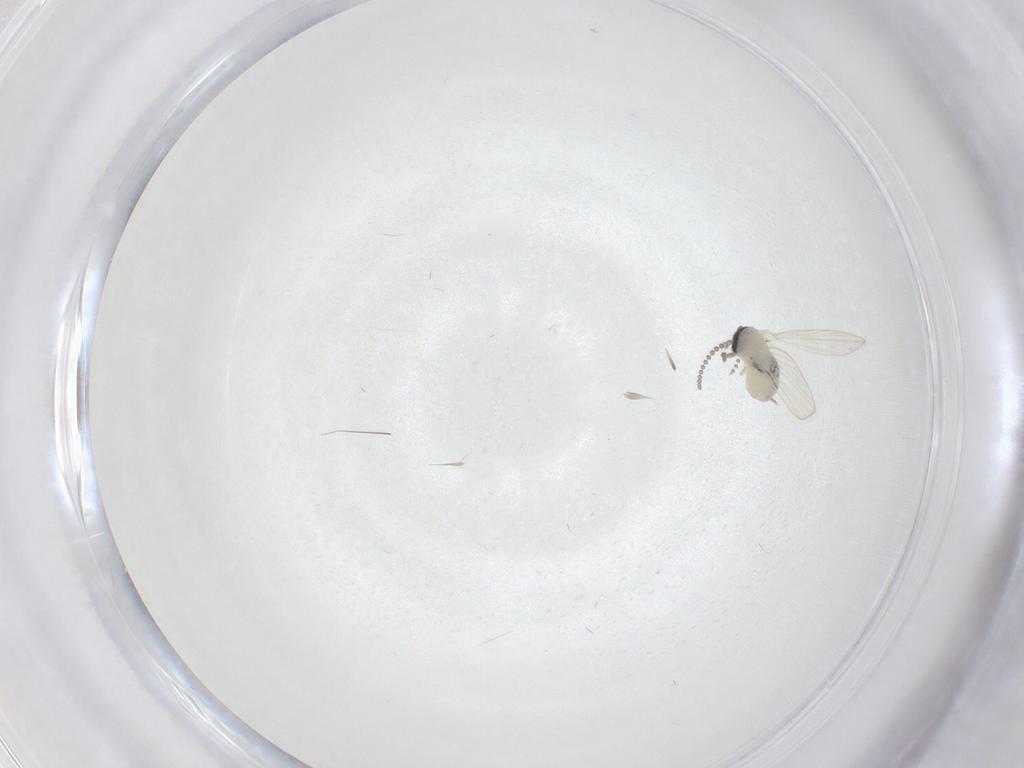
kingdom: Animalia
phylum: Arthropoda
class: Insecta
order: Diptera
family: Psychodidae
